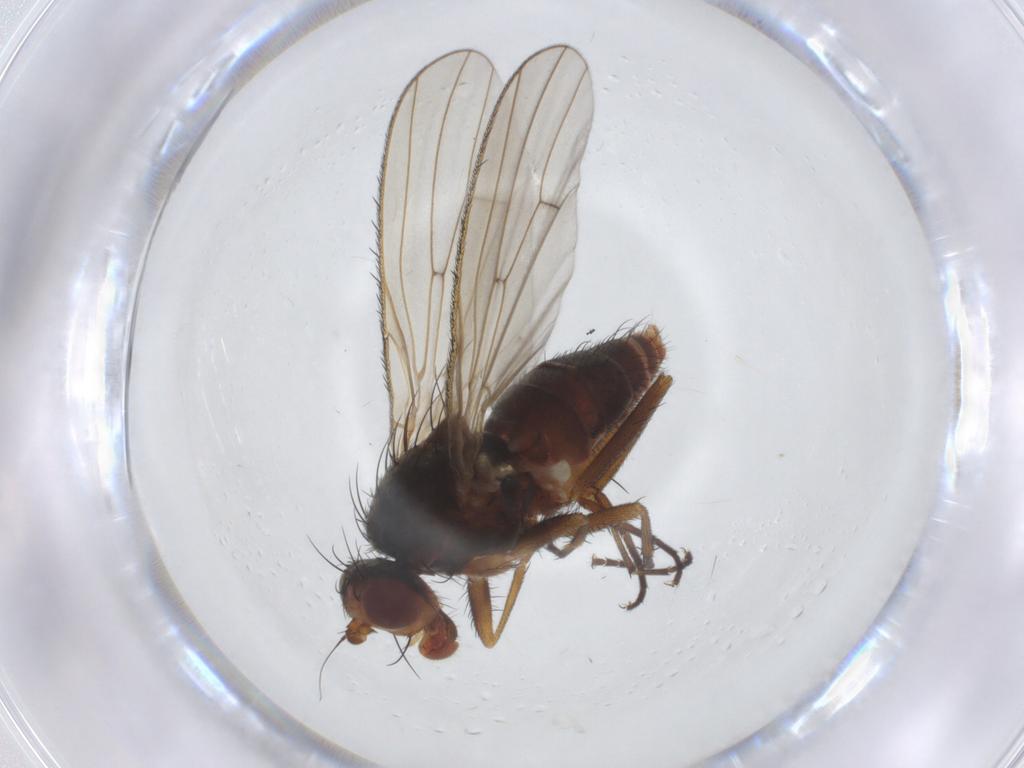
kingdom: Animalia
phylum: Arthropoda
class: Insecta
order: Diptera
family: Heleomyzidae
